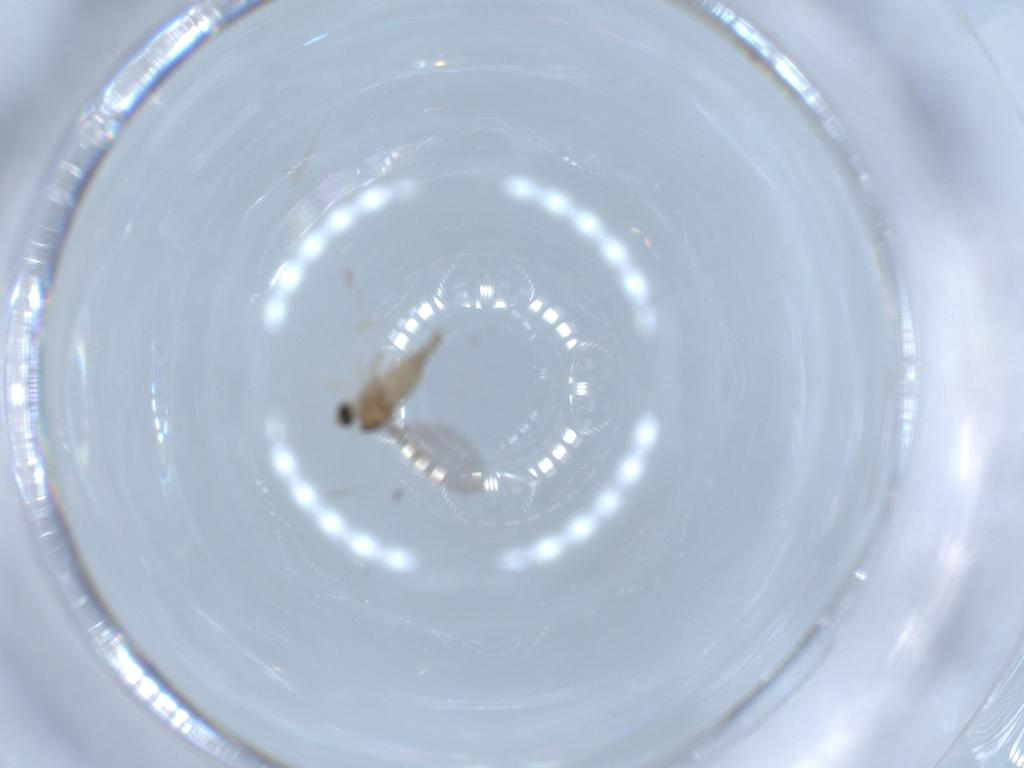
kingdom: Animalia
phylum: Arthropoda
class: Insecta
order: Diptera
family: Cecidomyiidae
